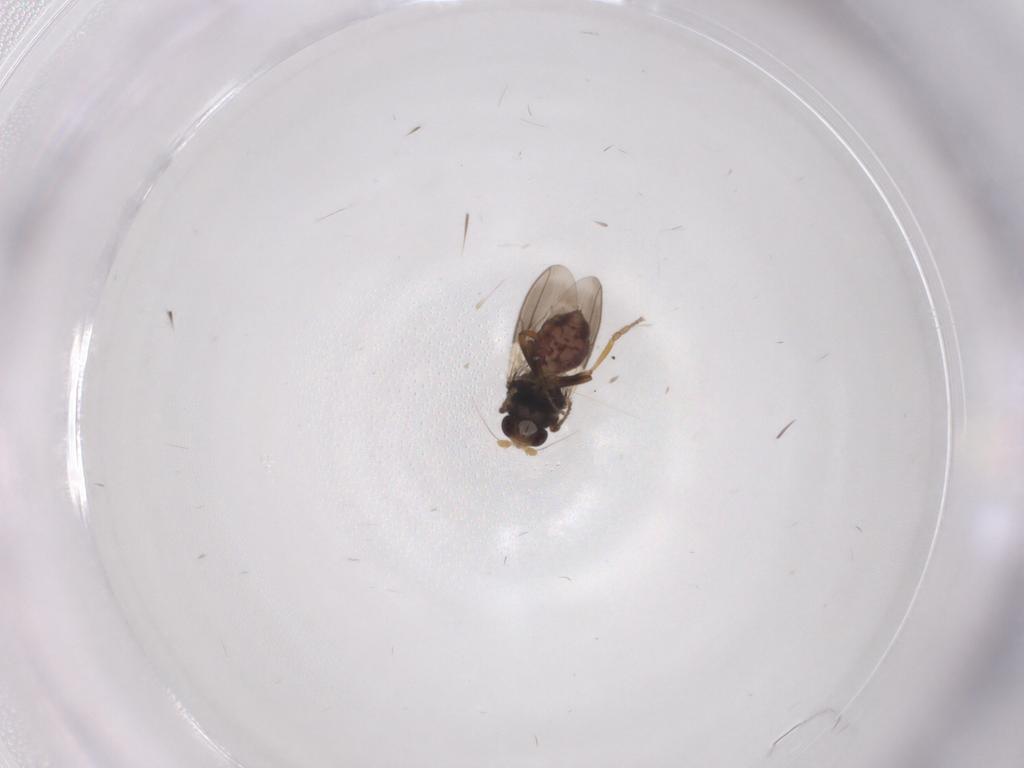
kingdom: Animalia
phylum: Arthropoda
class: Insecta
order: Diptera
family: Sphaeroceridae
